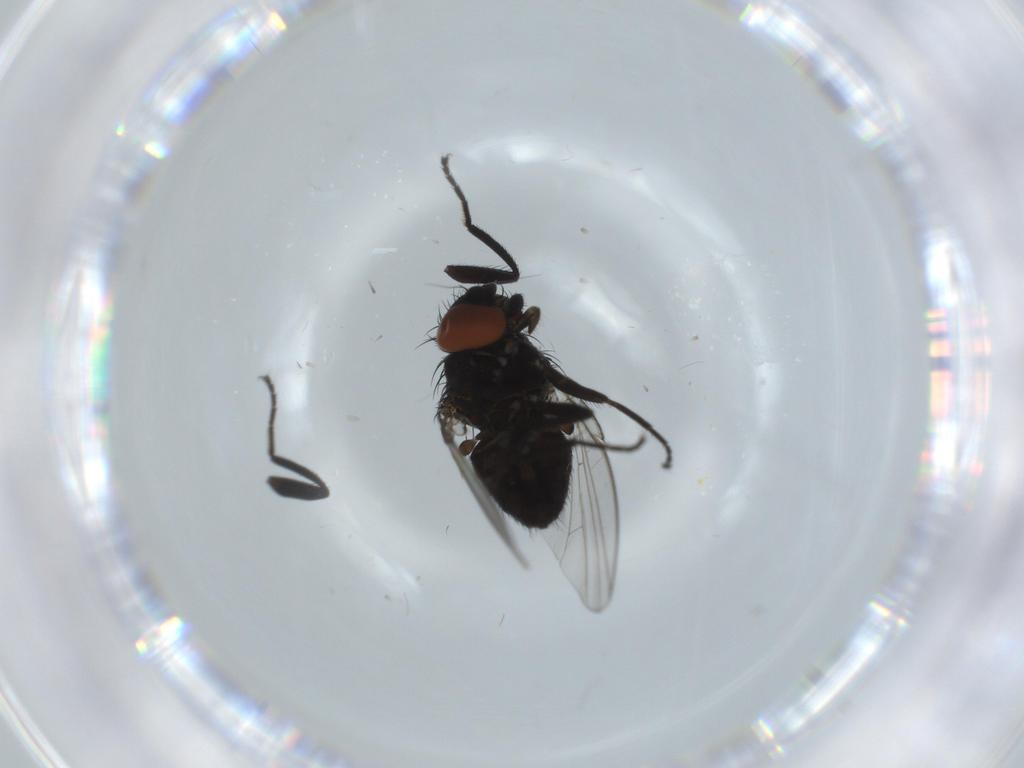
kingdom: Animalia
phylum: Arthropoda
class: Insecta
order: Diptera
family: Milichiidae
